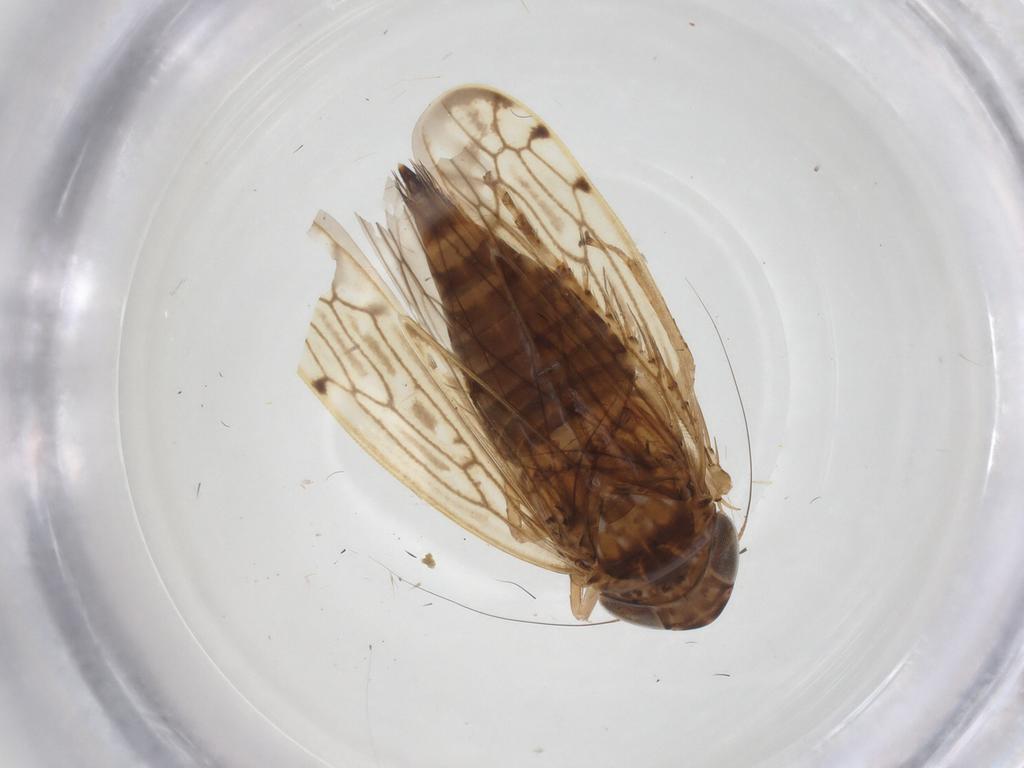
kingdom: Animalia
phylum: Arthropoda
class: Insecta
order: Hemiptera
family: Cicadellidae
